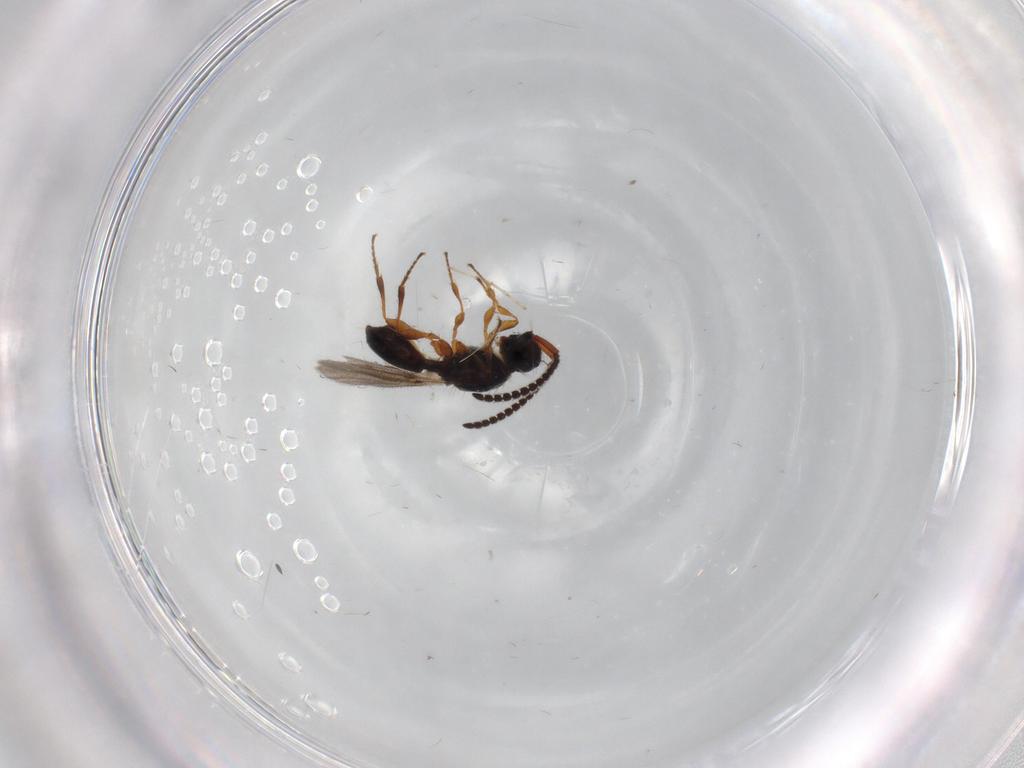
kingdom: Animalia
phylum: Arthropoda
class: Insecta
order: Hymenoptera
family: Diapriidae
